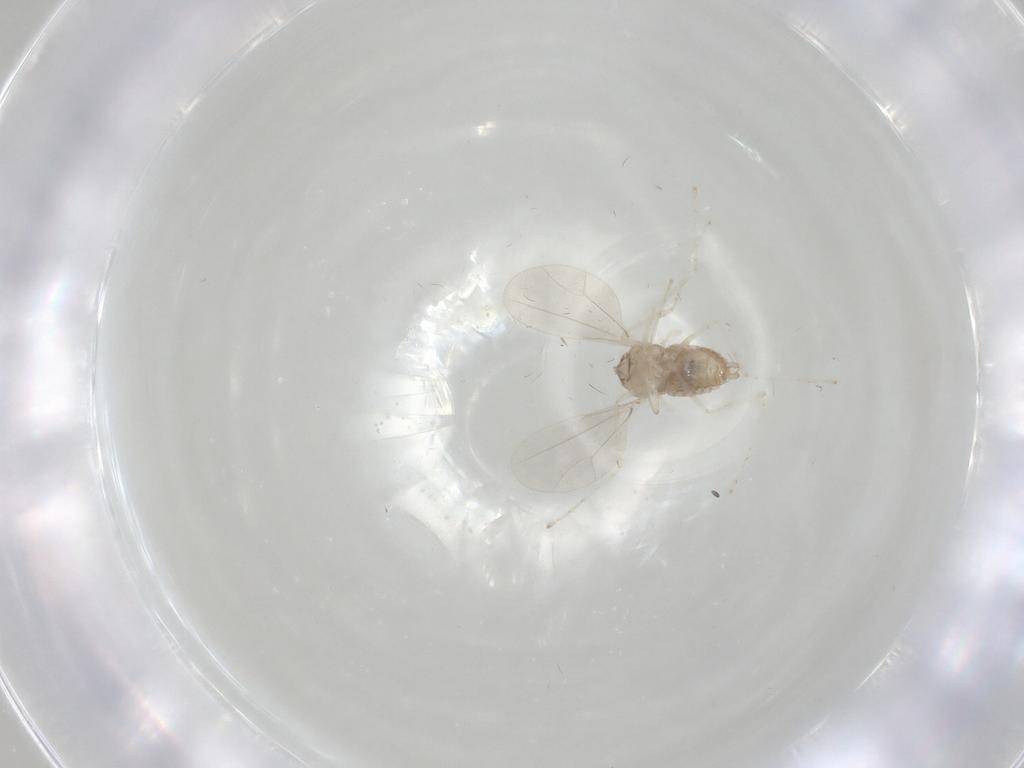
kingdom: Animalia
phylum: Arthropoda
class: Insecta
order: Diptera
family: Cecidomyiidae
